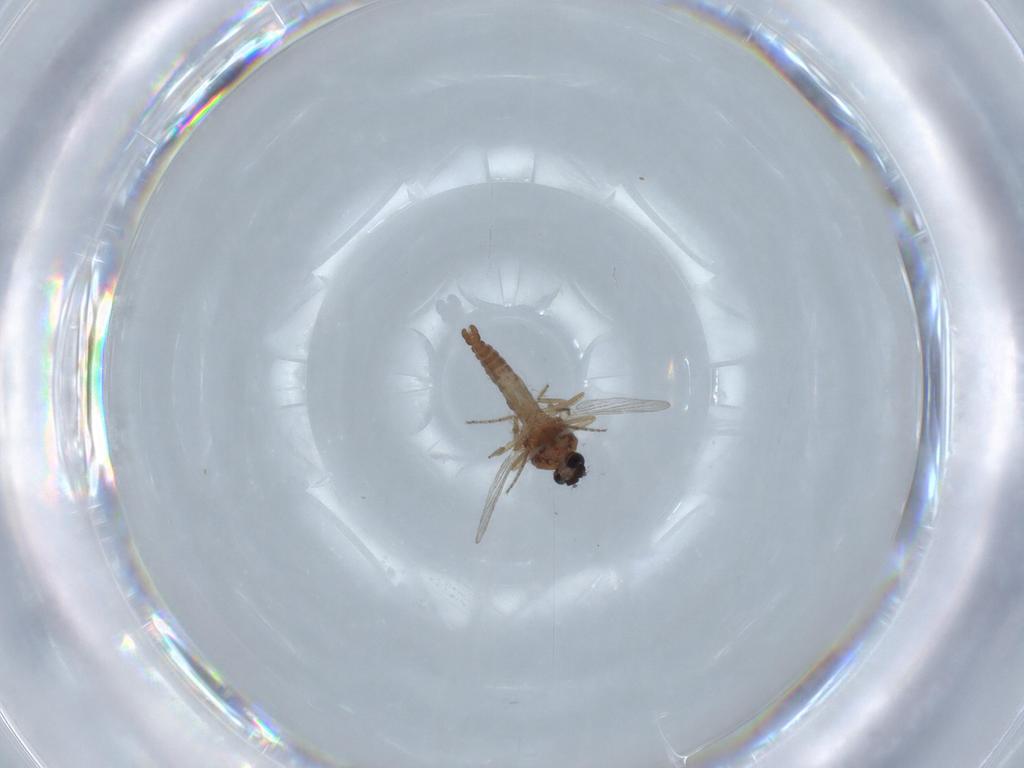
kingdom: Animalia
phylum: Arthropoda
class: Insecta
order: Diptera
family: Ceratopogonidae
